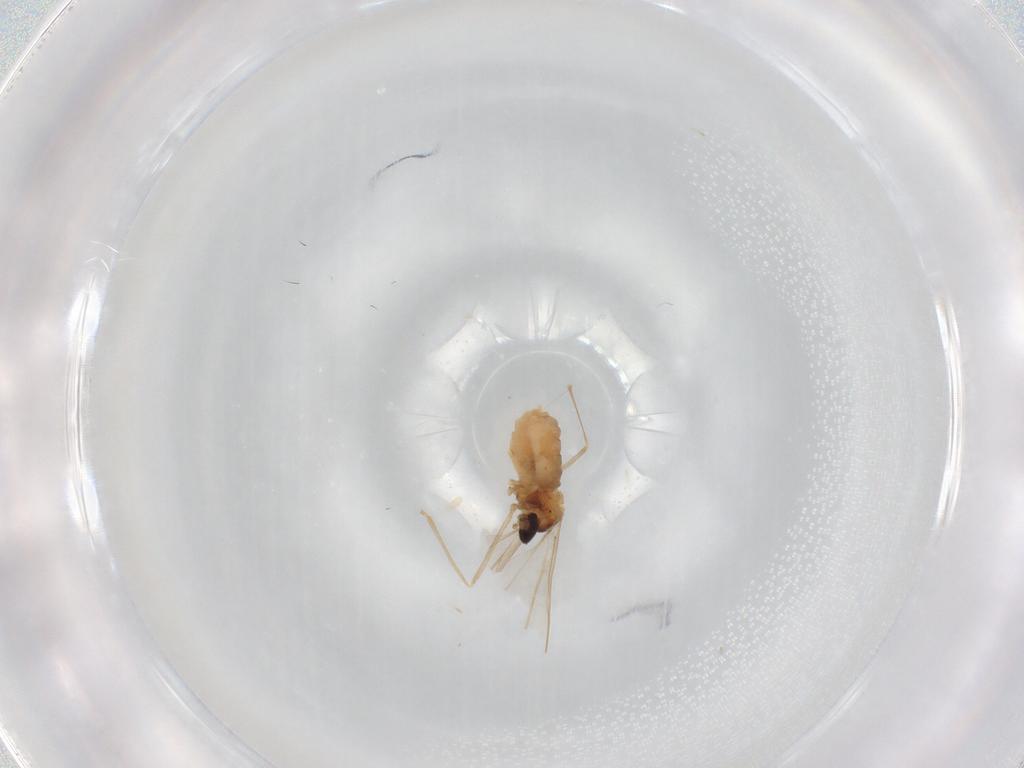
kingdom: Animalia
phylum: Arthropoda
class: Insecta
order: Diptera
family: Cecidomyiidae
